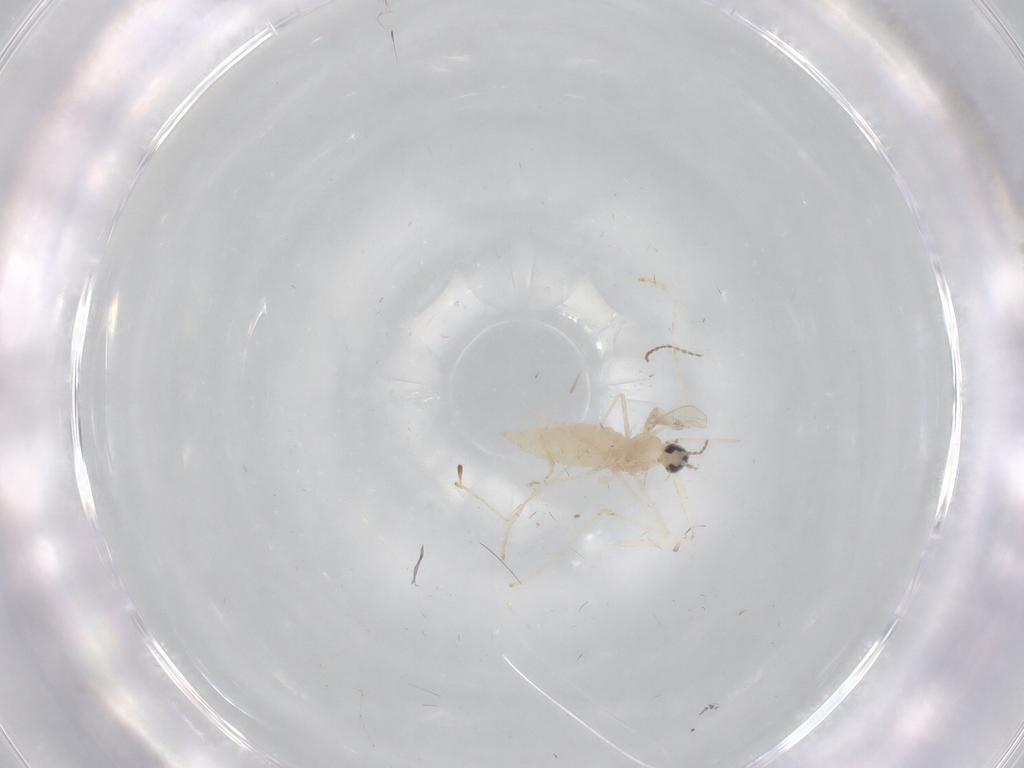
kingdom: Animalia
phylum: Arthropoda
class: Insecta
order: Diptera
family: Cecidomyiidae
